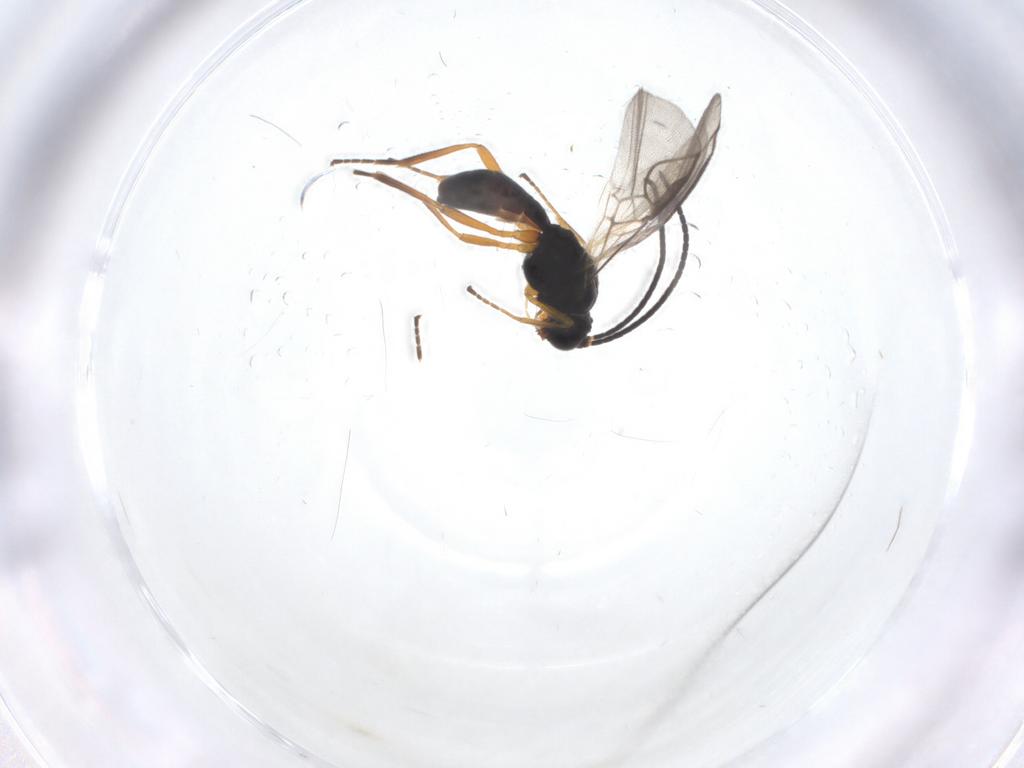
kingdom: Animalia
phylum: Arthropoda
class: Insecta
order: Hymenoptera
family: Braconidae
